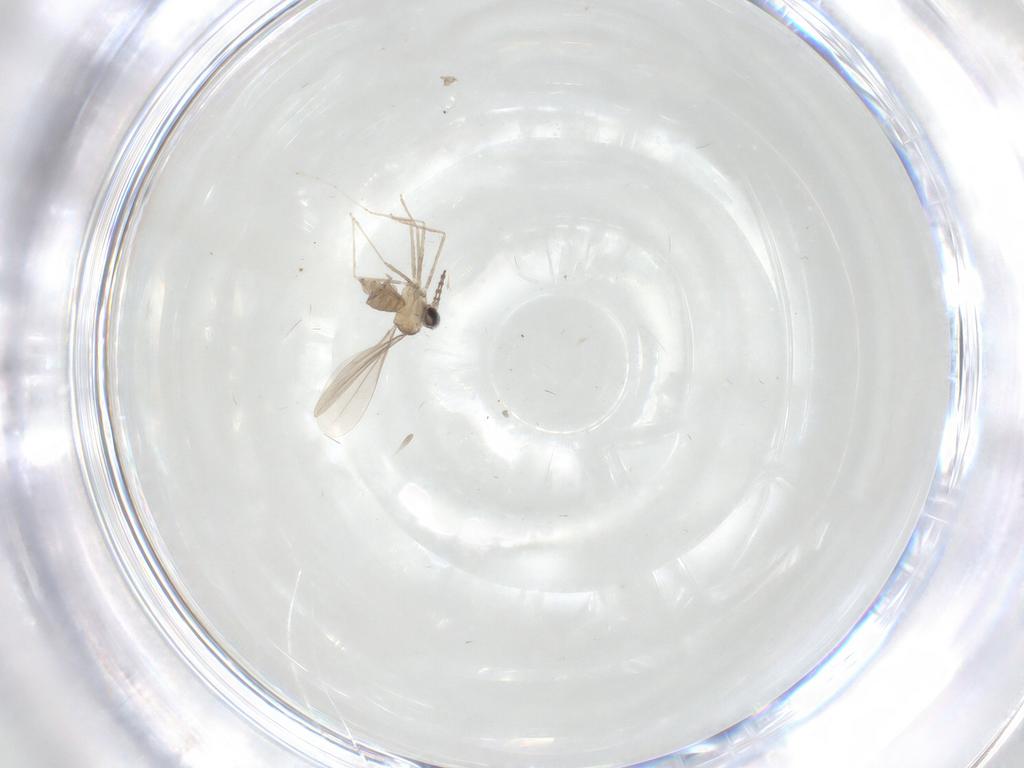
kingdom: Animalia
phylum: Arthropoda
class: Insecta
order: Diptera
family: Cecidomyiidae
